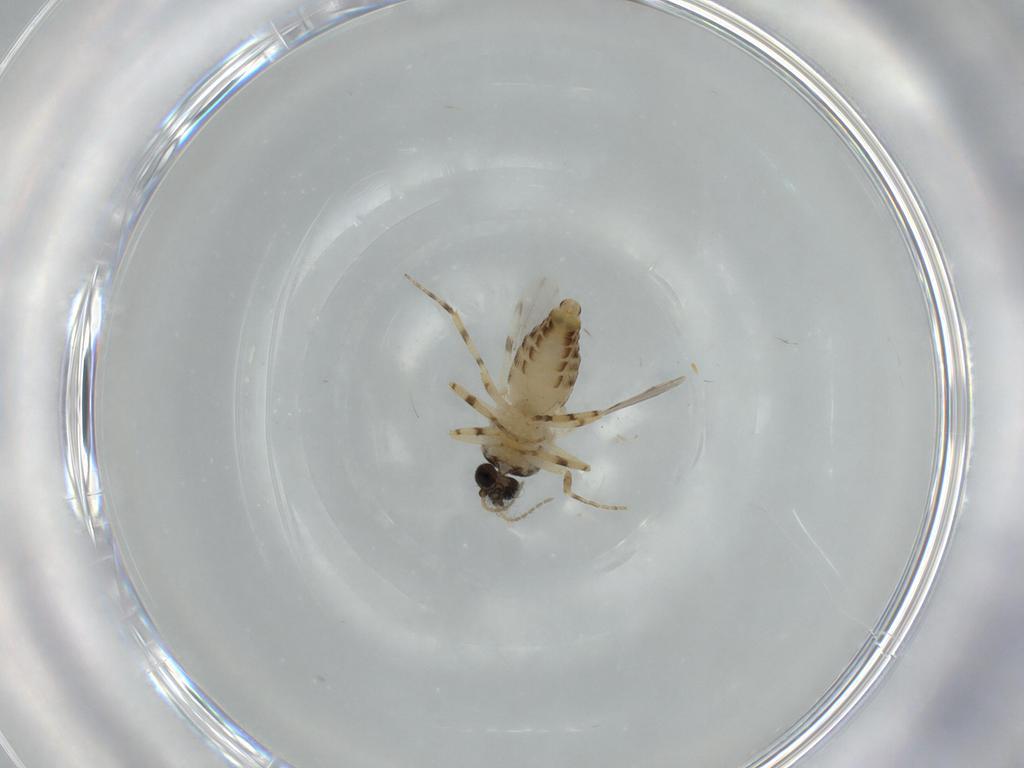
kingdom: Animalia
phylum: Arthropoda
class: Insecta
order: Diptera
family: Ceratopogonidae
